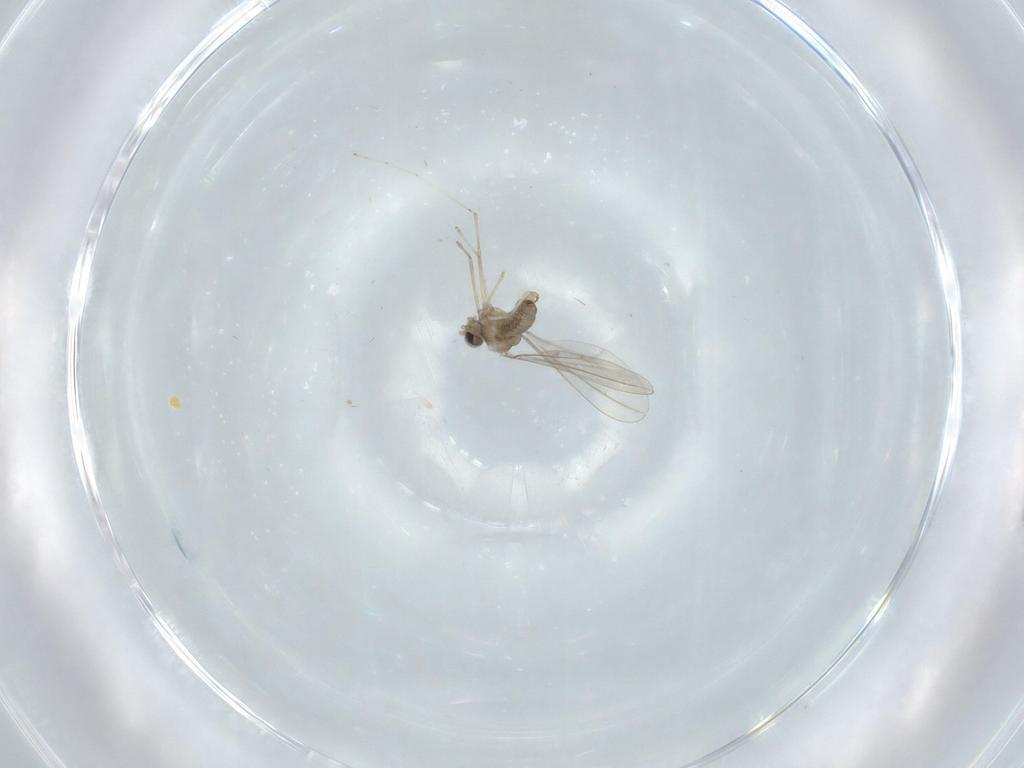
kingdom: Animalia
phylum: Arthropoda
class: Insecta
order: Diptera
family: Cecidomyiidae
